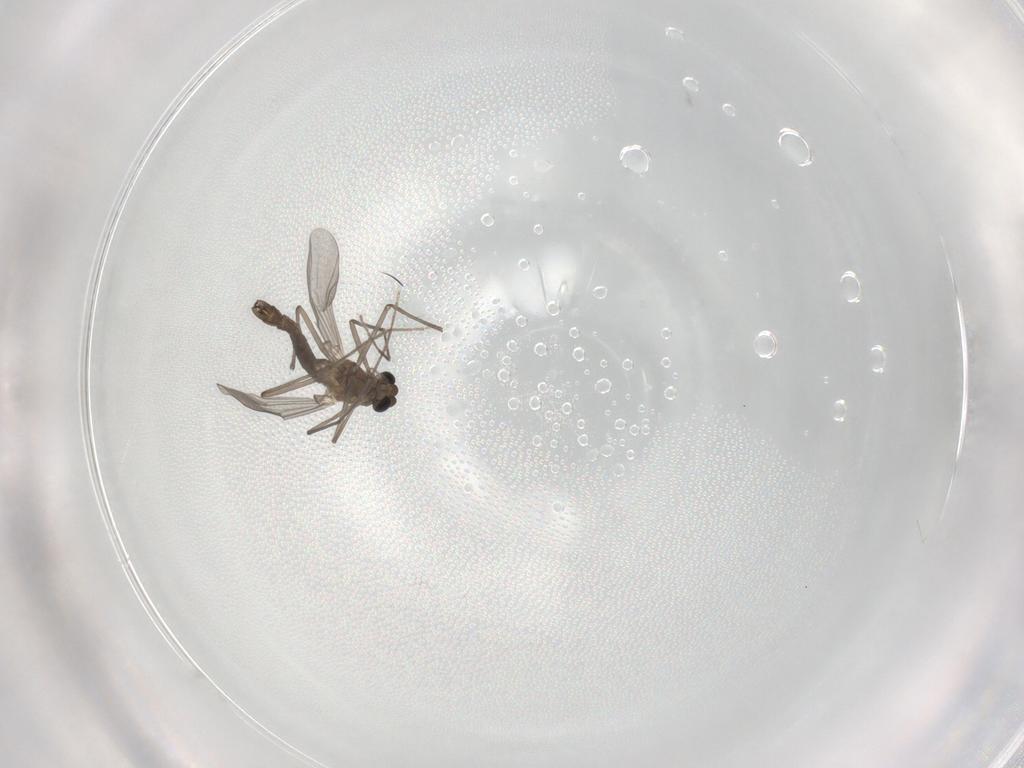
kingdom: Animalia
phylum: Arthropoda
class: Insecta
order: Diptera
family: Chironomidae
